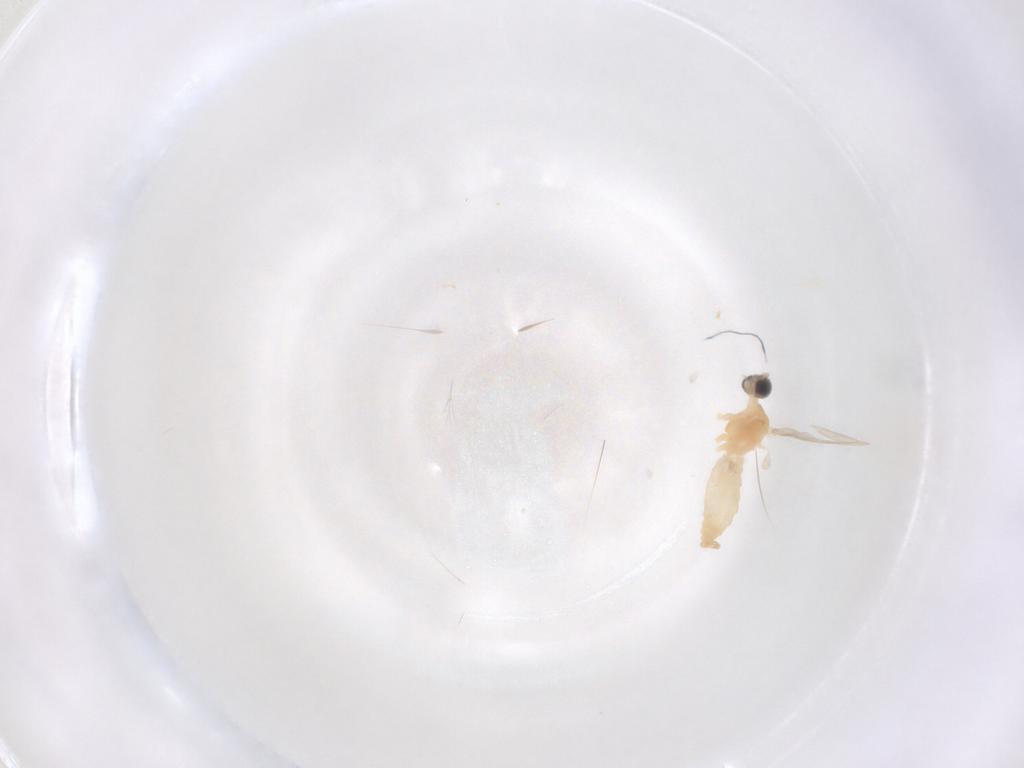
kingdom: Animalia
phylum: Arthropoda
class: Insecta
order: Diptera
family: Cecidomyiidae
